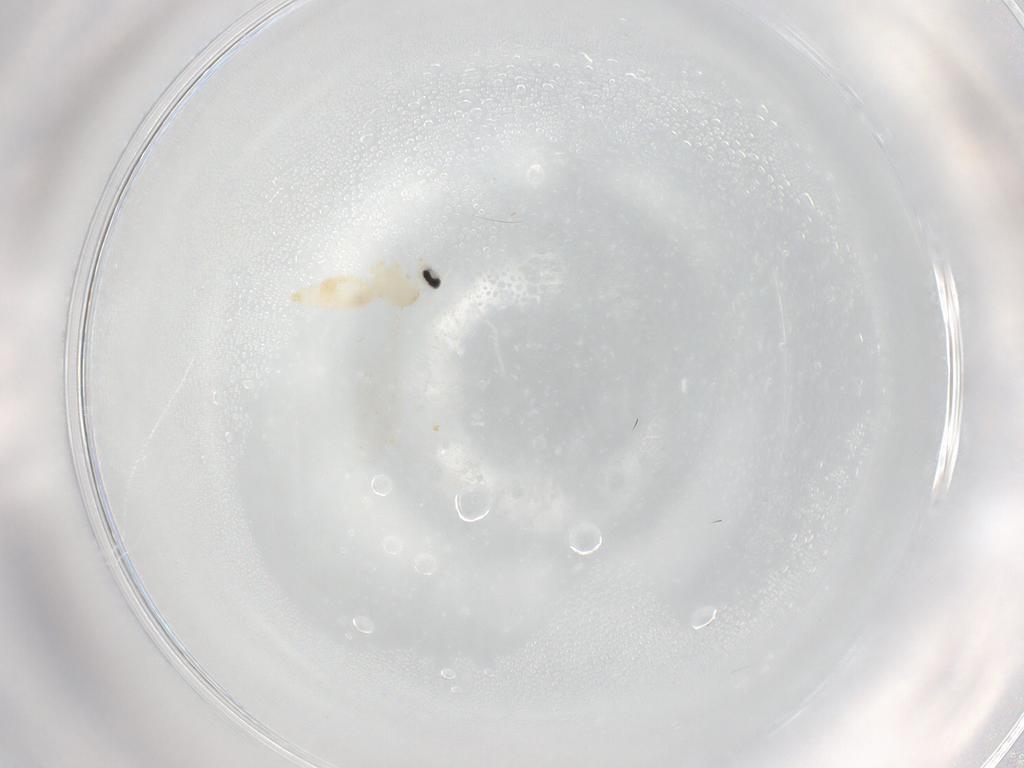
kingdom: Animalia
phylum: Arthropoda
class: Insecta
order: Diptera
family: Sciaridae
